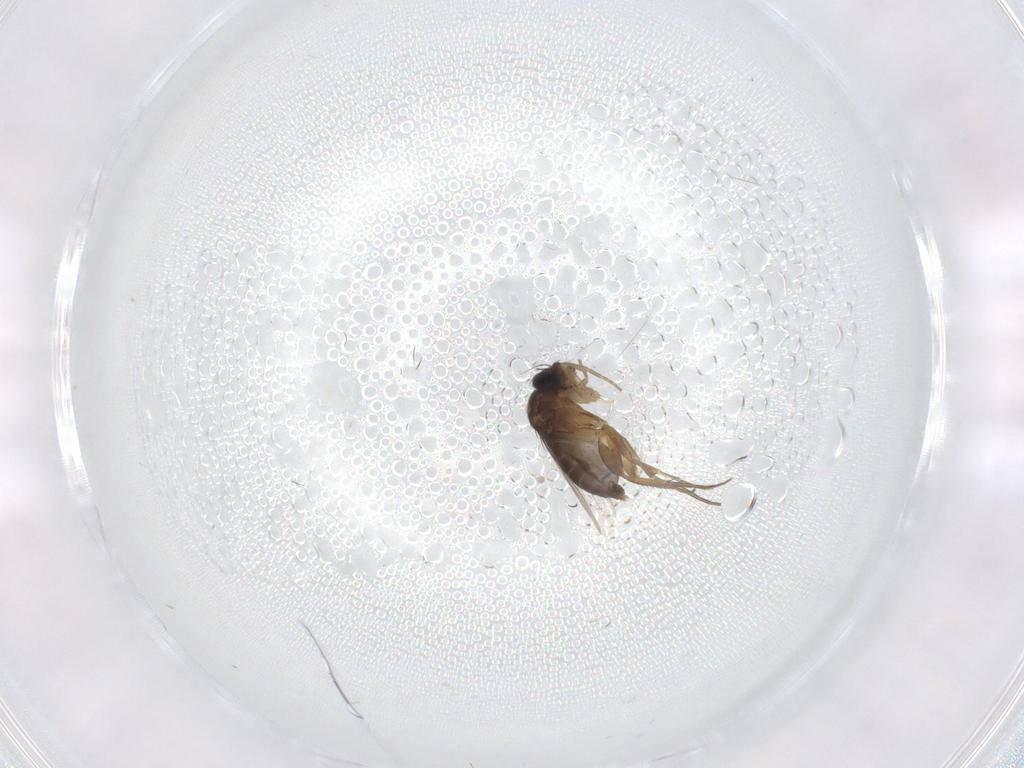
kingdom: Animalia
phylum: Arthropoda
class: Insecta
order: Diptera
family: Phoridae
